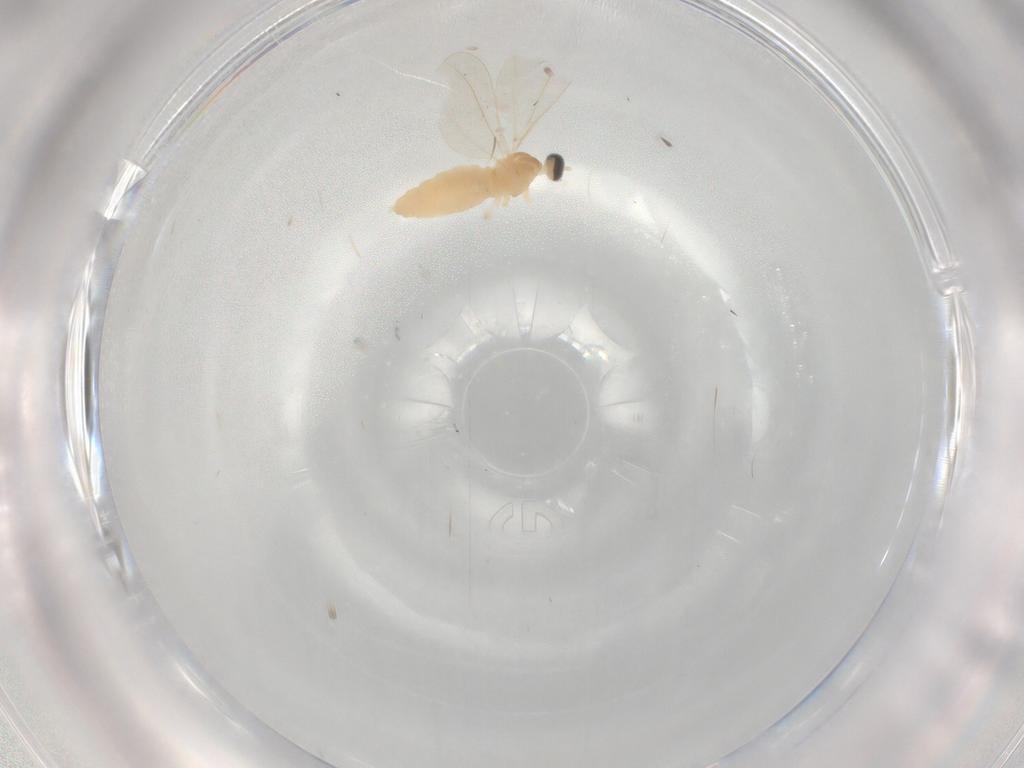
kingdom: Animalia
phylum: Arthropoda
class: Insecta
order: Diptera
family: Cecidomyiidae
